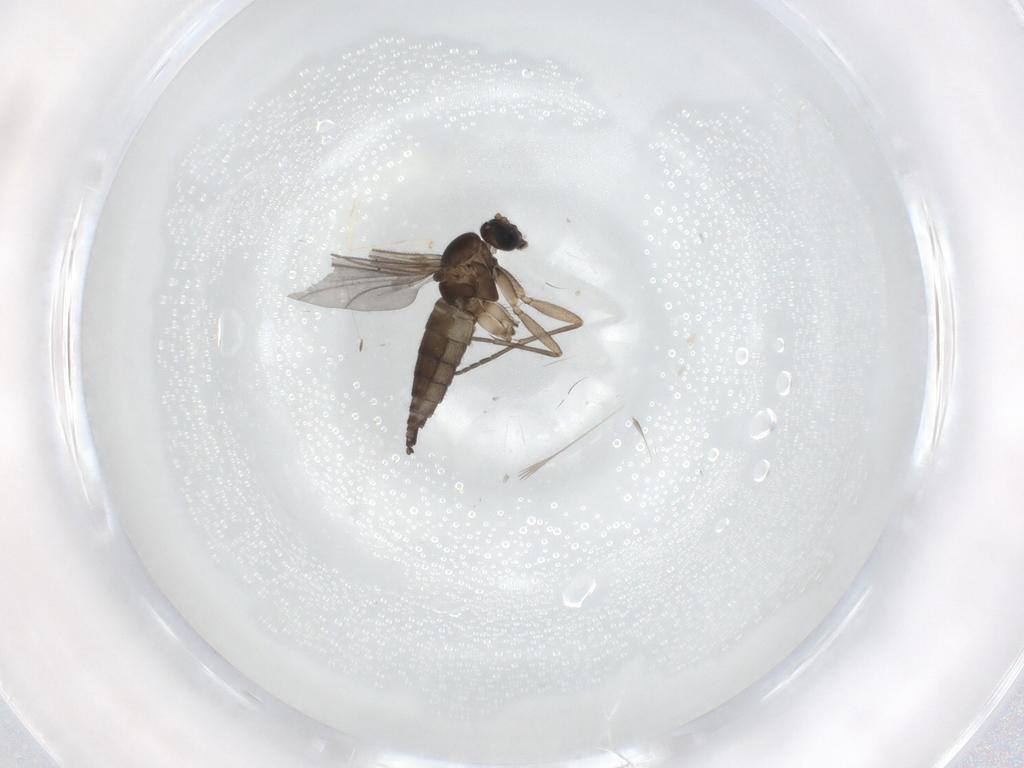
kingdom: Animalia
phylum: Arthropoda
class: Insecta
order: Diptera
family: Sciaridae
